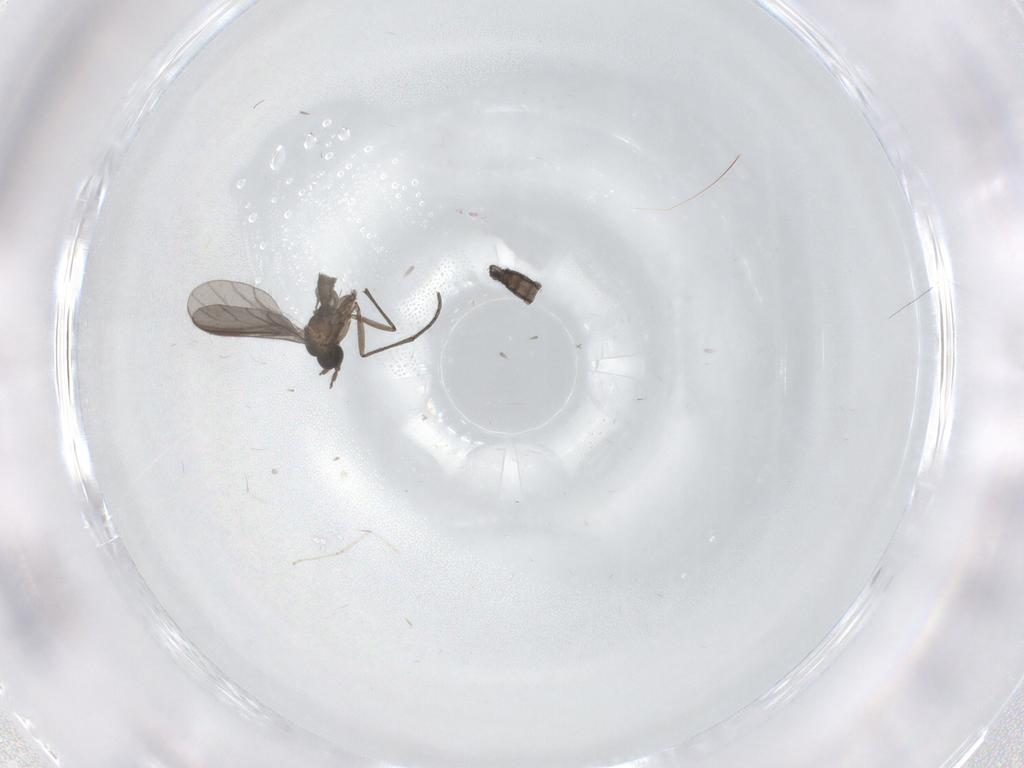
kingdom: Animalia
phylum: Arthropoda
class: Insecta
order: Diptera
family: Sciaridae
